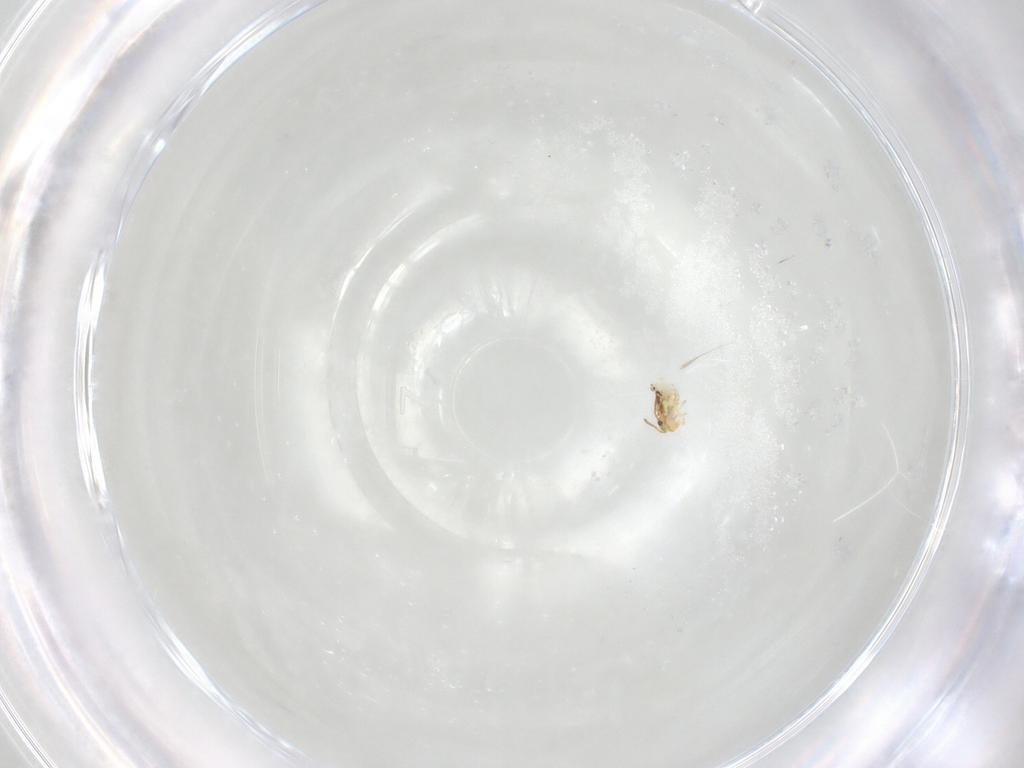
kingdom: Animalia
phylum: Arthropoda
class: Collembola
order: Symphypleona
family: Bourletiellidae
